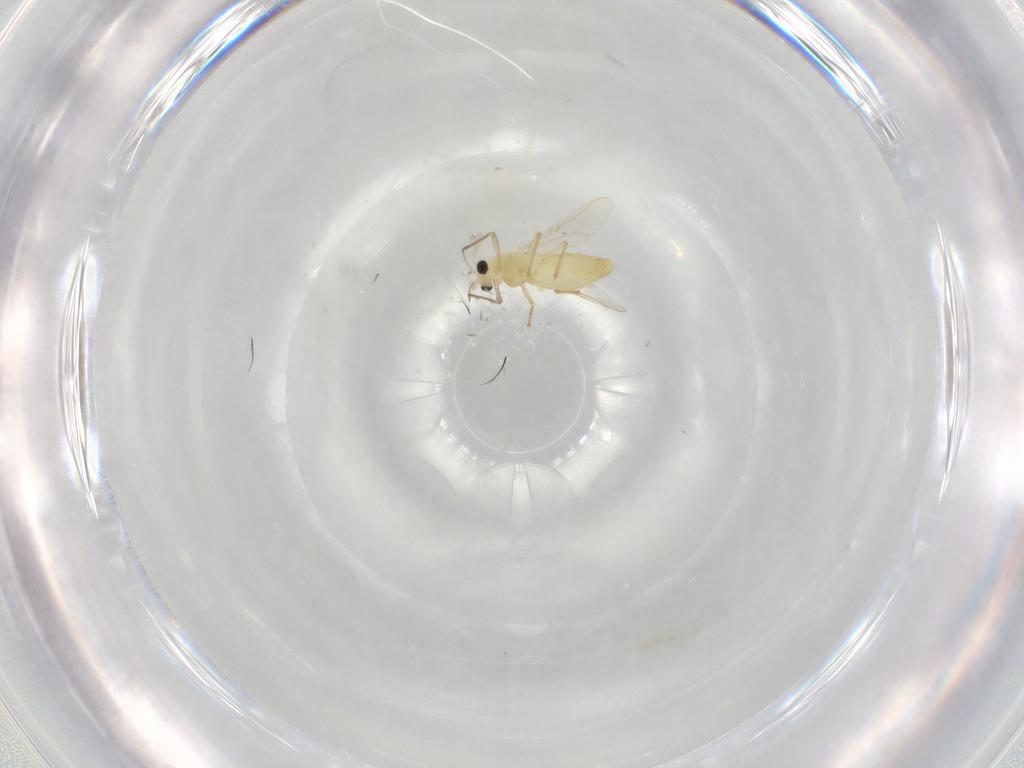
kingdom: Animalia
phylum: Arthropoda
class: Insecta
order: Diptera
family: Chironomidae
